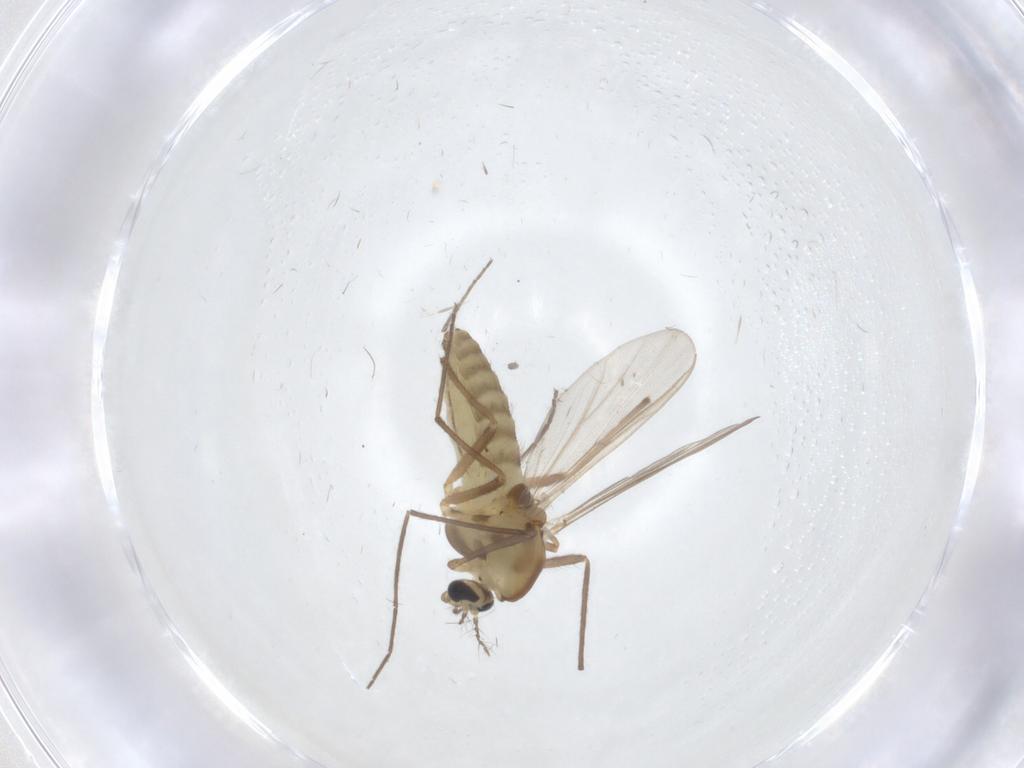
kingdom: Animalia
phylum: Arthropoda
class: Insecta
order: Diptera
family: Chironomidae
